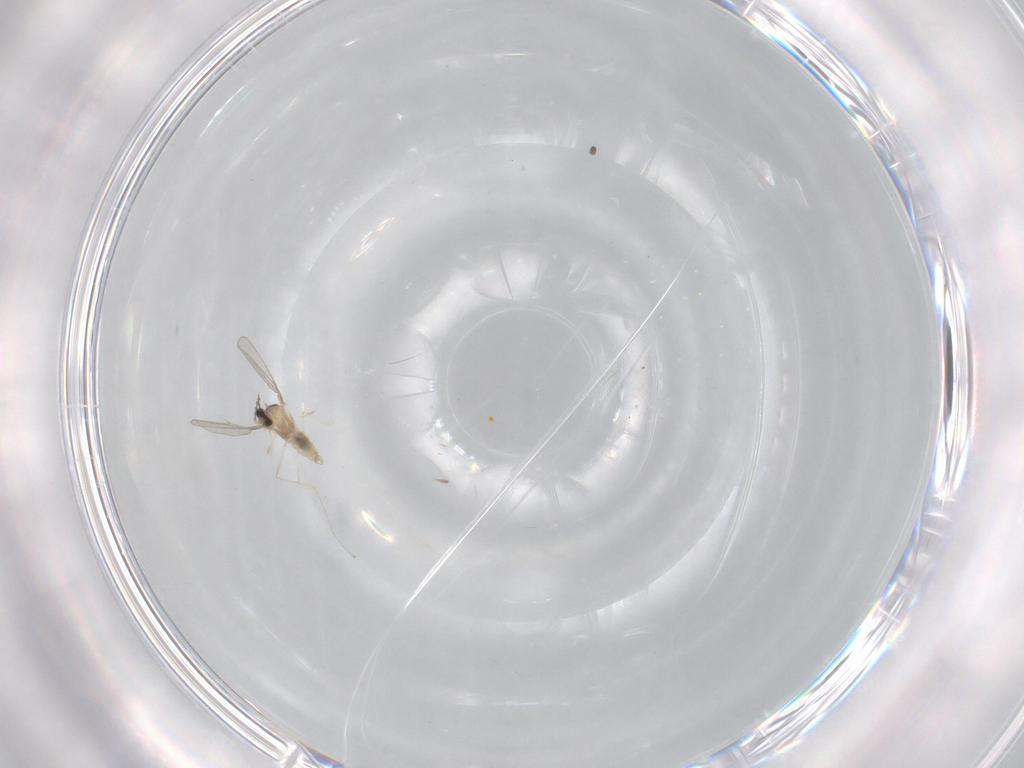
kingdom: Animalia
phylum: Arthropoda
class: Insecta
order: Diptera
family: Cecidomyiidae
